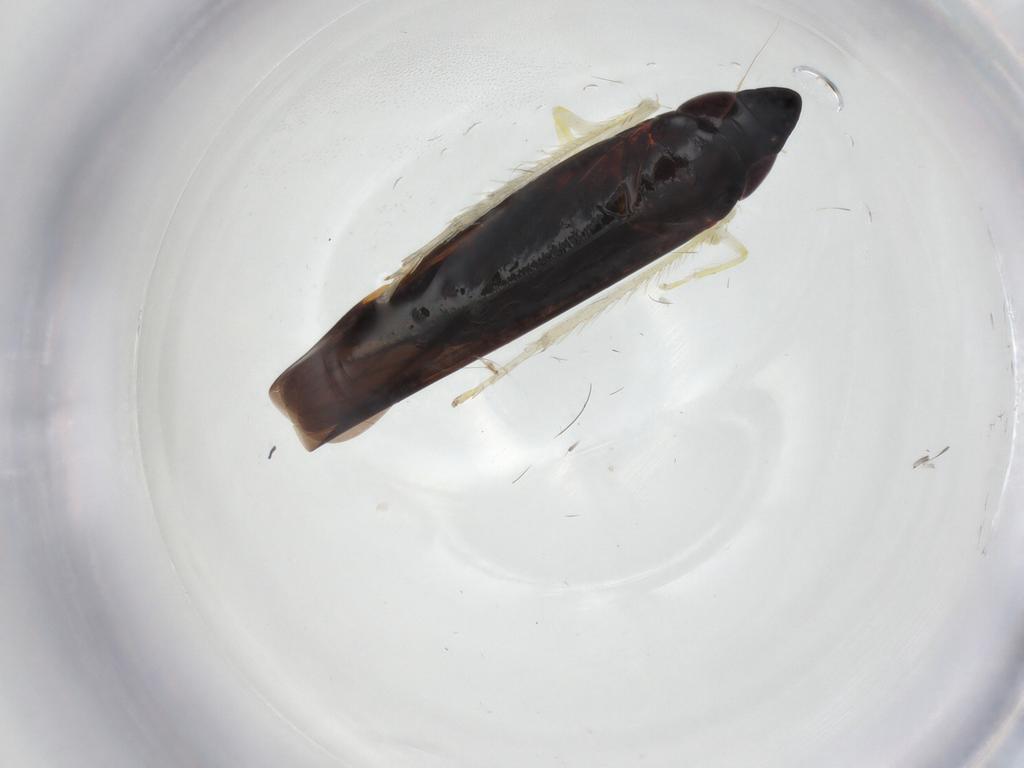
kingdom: Animalia
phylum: Arthropoda
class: Insecta
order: Hemiptera
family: Cicadellidae
